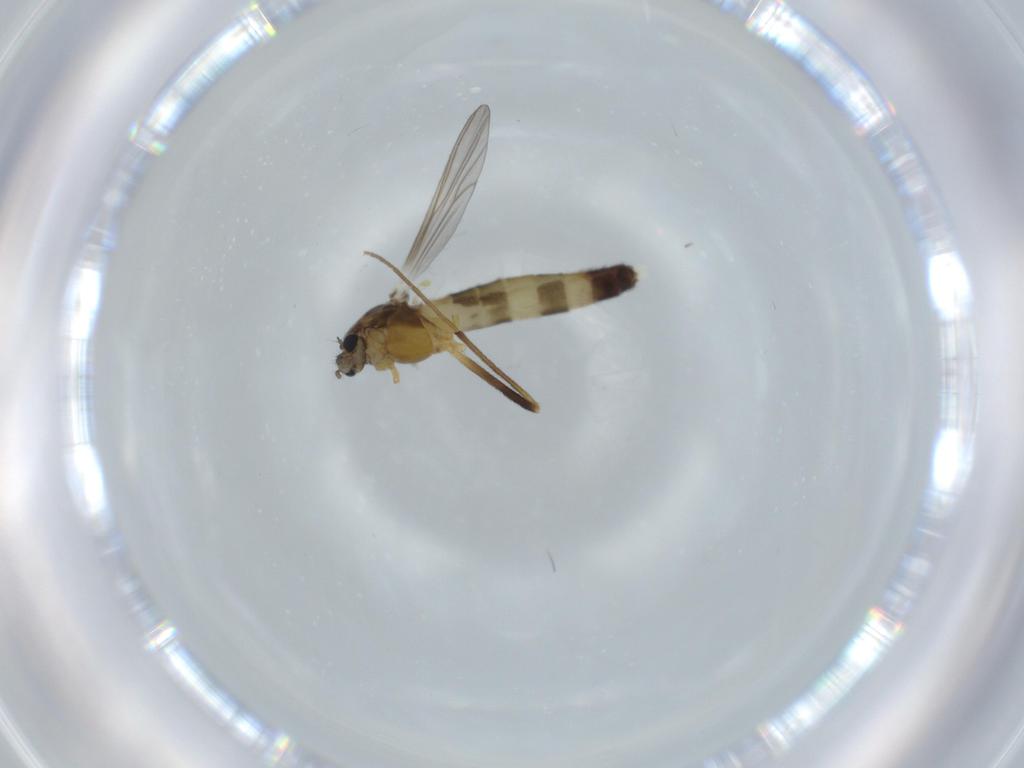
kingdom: Animalia
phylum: Arthropoda
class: Insecta
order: Diptera
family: Chironomidae
